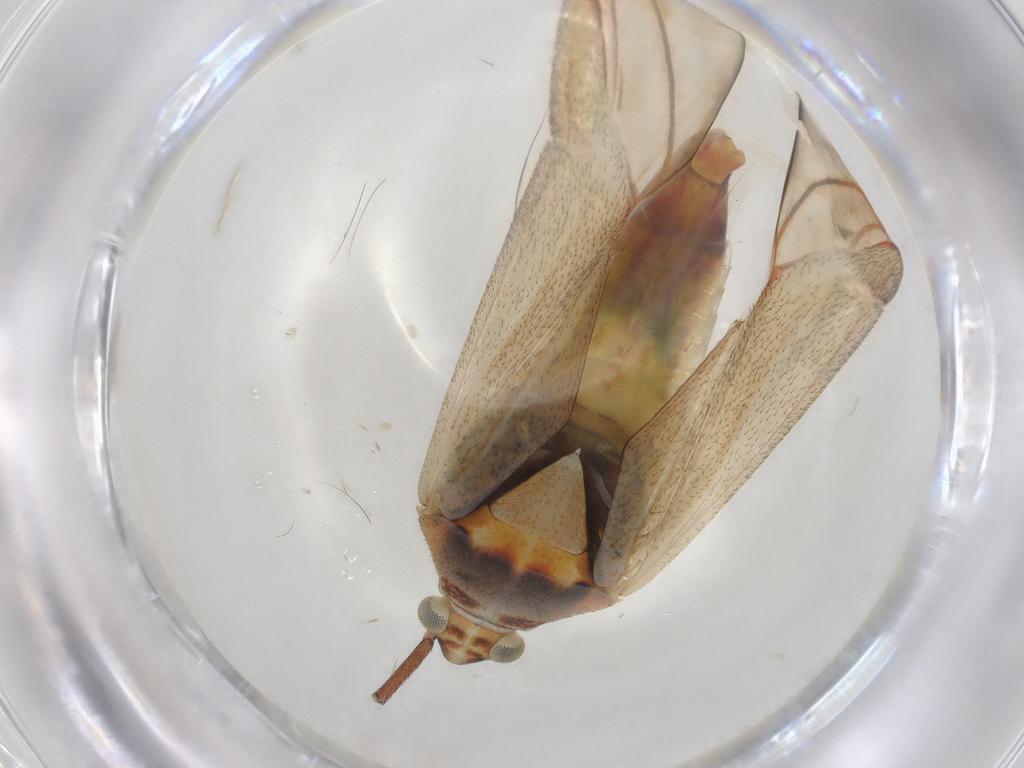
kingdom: Animalia
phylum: Arthropoda
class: Insecta
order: Hemiptera
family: Miridae
